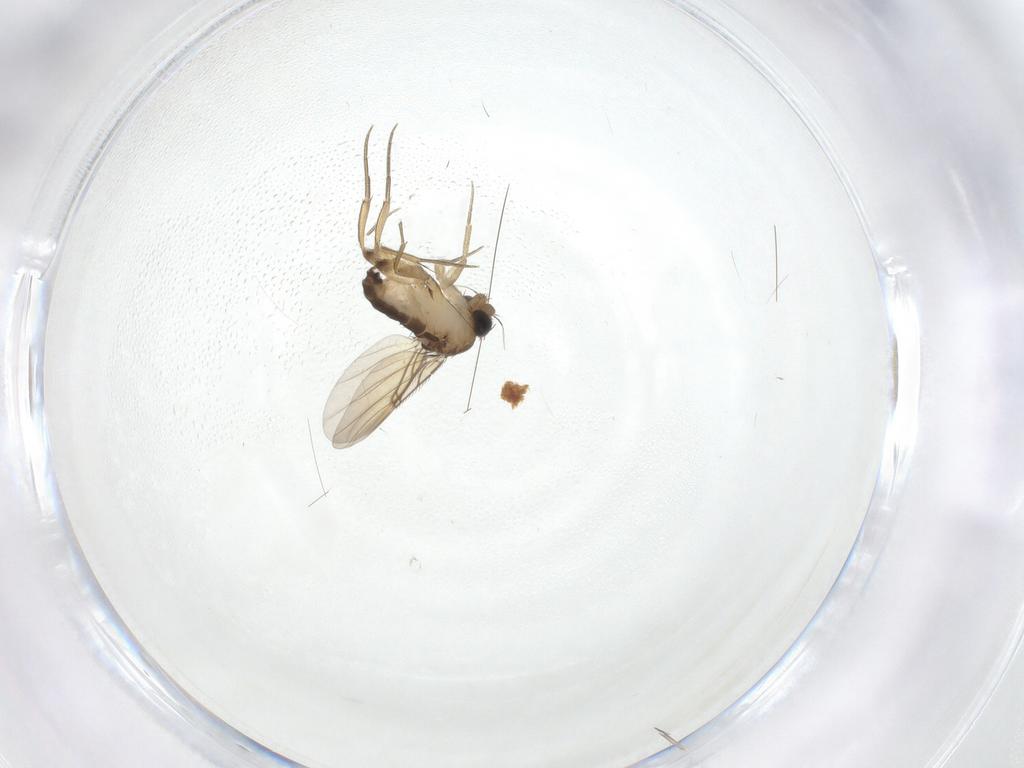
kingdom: Animalia
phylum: Arthropoda
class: Insecta
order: Diptera
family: Phoridae
